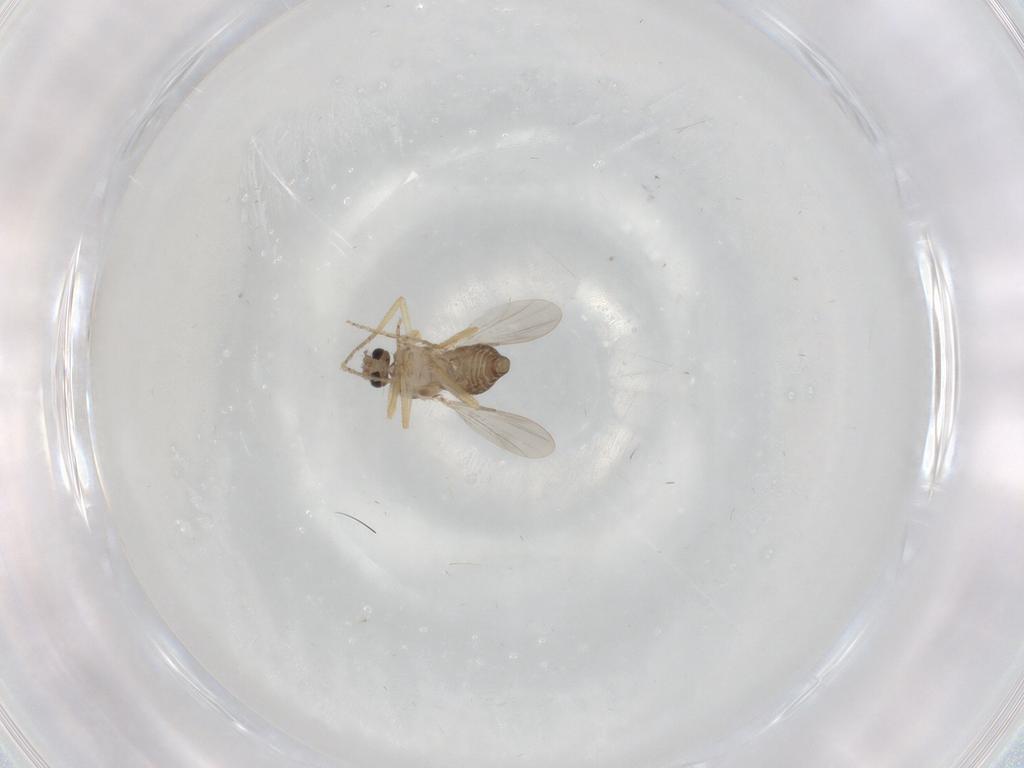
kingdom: Animalia
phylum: Arthropoda
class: Insecta
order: Diptera
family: Ceratopogonidae
